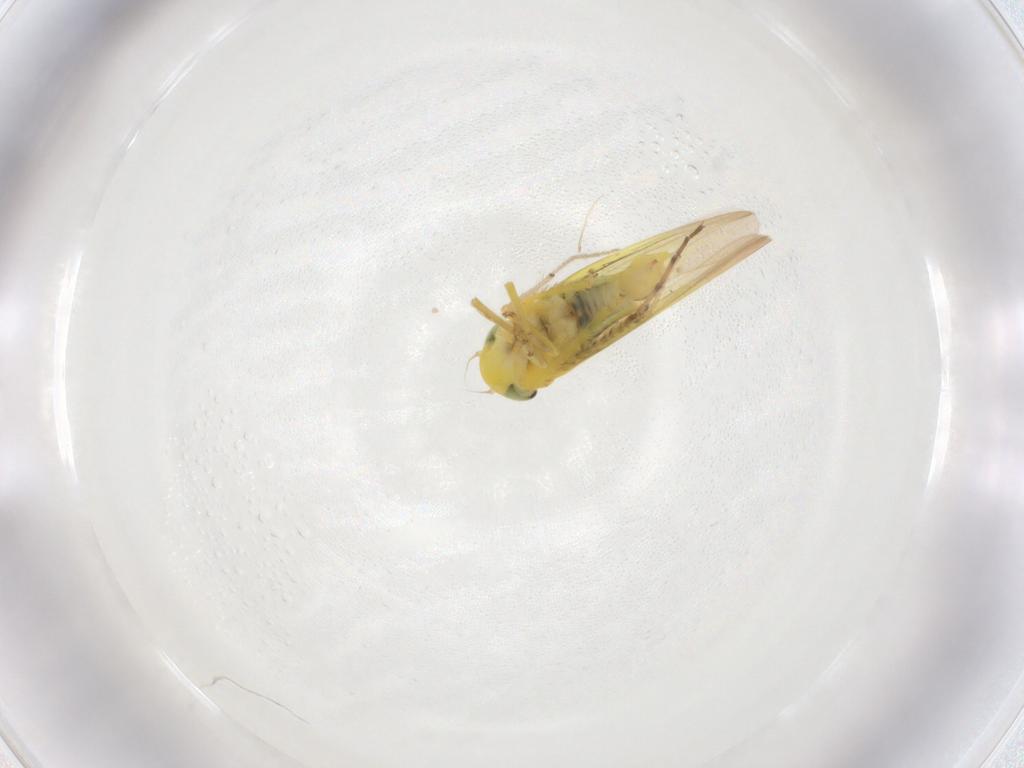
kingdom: Animalia
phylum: Arthropoda
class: Insecta
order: Hemiptera
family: Cicadellidae
